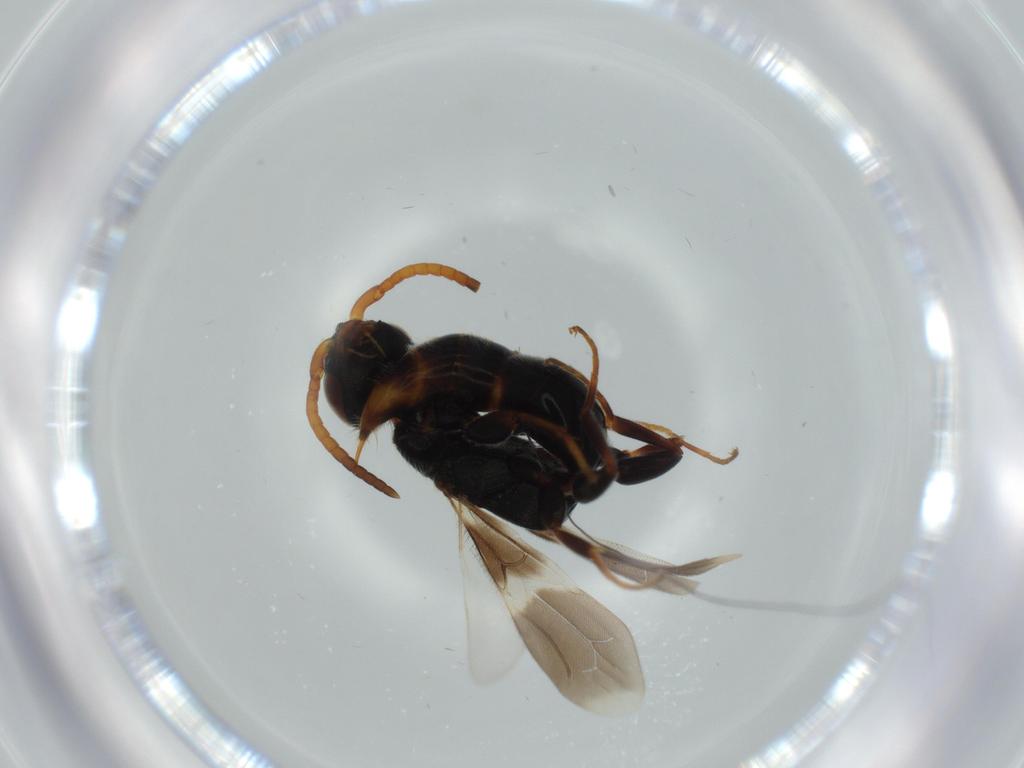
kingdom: Animalia
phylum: Arthropoda
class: Insecta
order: Hymenoptera
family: Bethylidae
